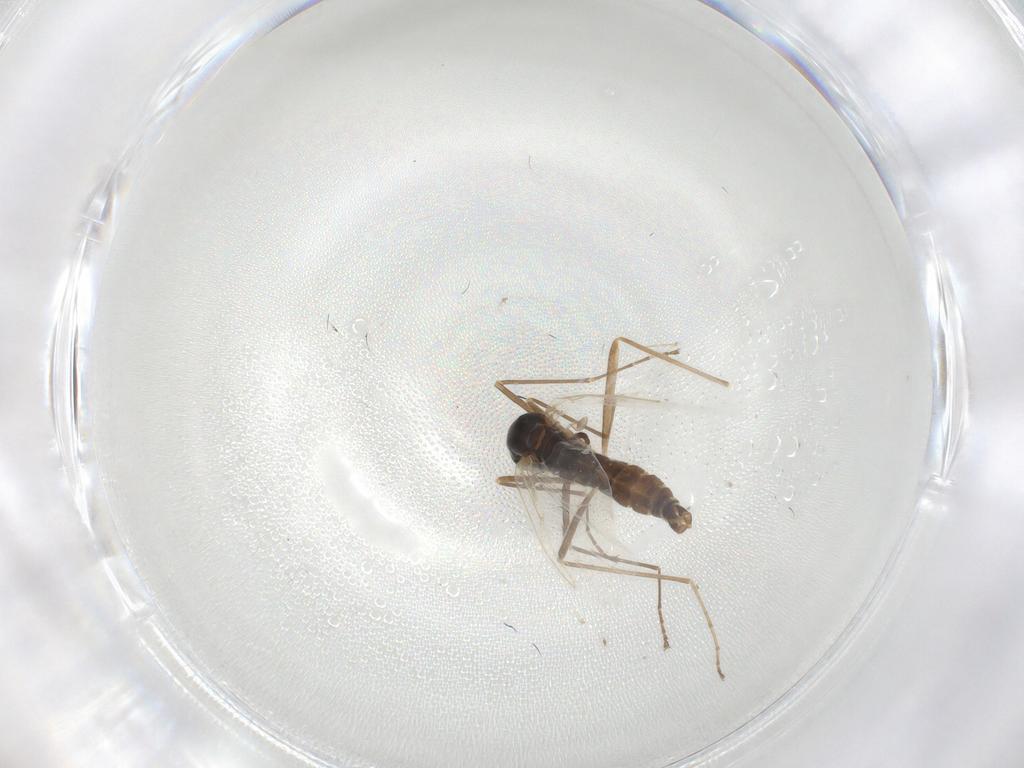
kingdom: Animalia
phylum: Arthropoda
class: Insecta
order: Diptera
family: Cecidomyiidae
